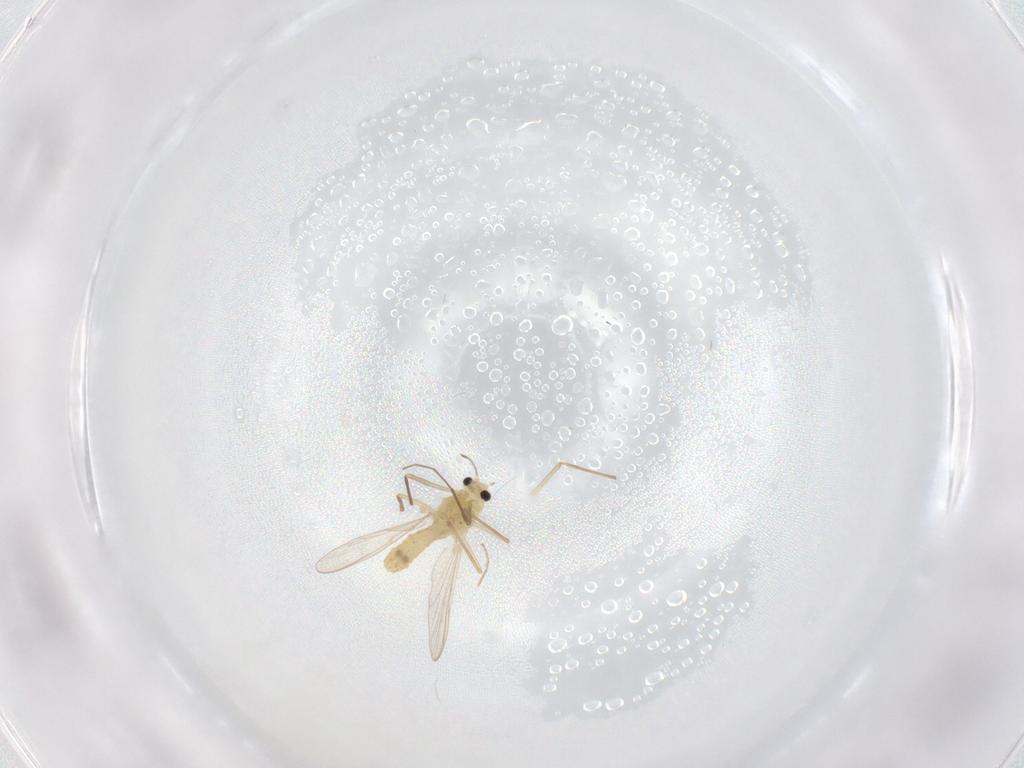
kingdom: Animalia
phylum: Arthropoda
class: Insecta
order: Diptera
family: Chironomidae
